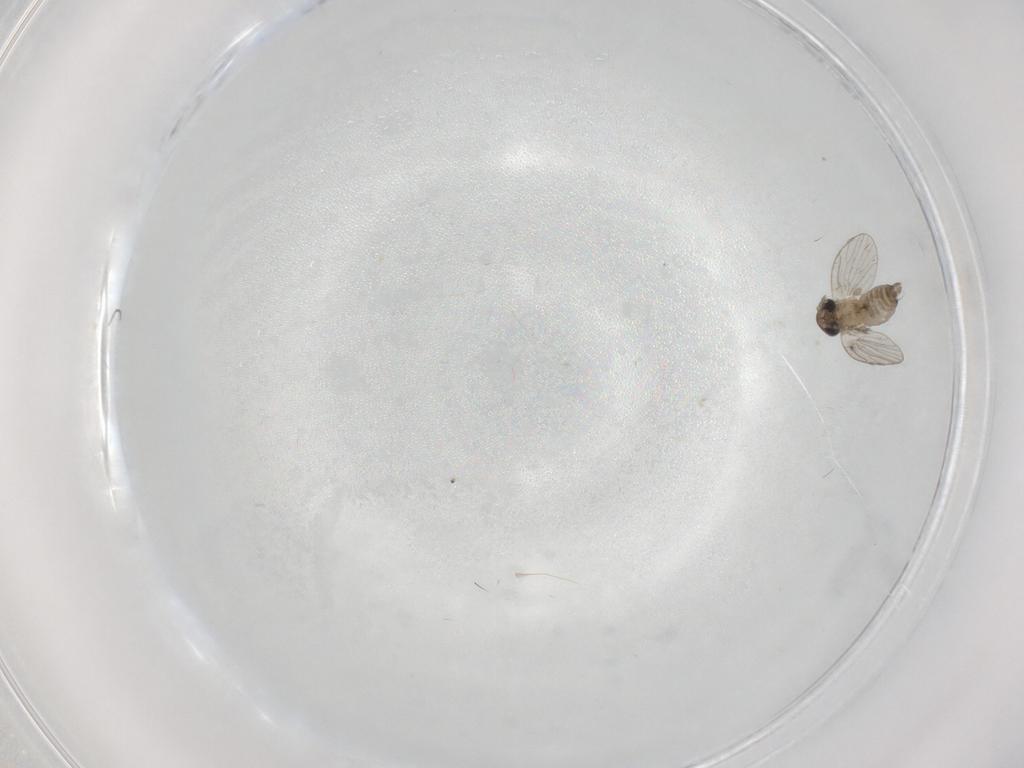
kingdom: Animalia
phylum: Arthropoda
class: Insecta
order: Diptera
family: Chironomidae
